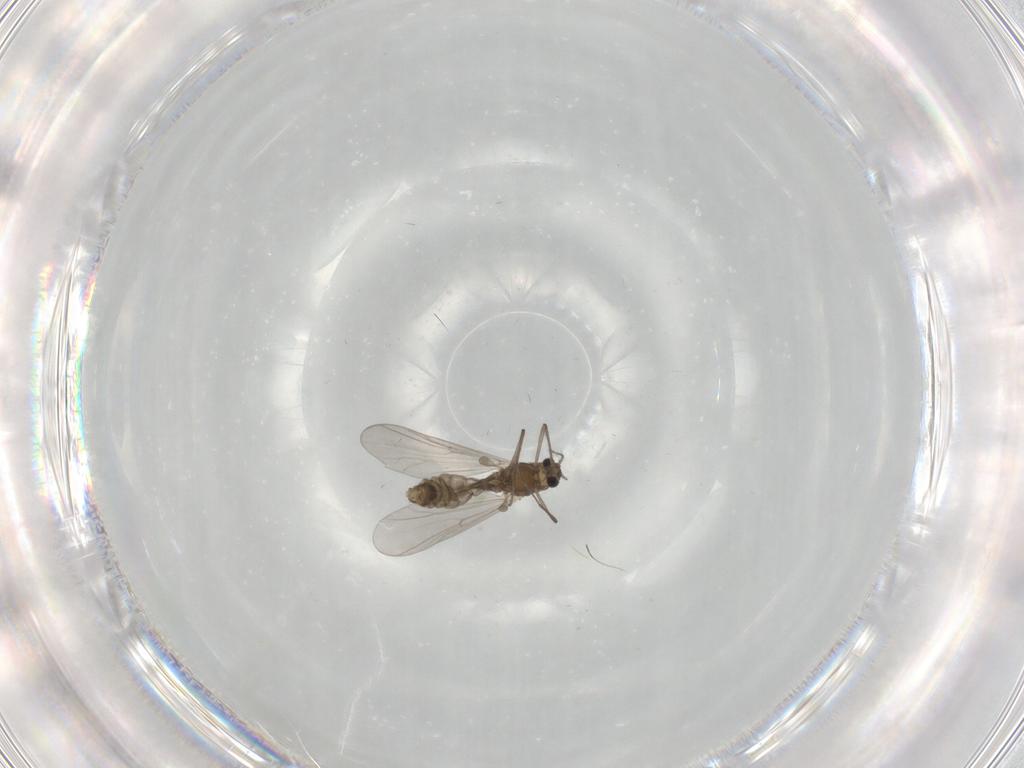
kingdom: Animalia
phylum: Arthropoda
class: Insecta
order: Diptera
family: Chironomidae
